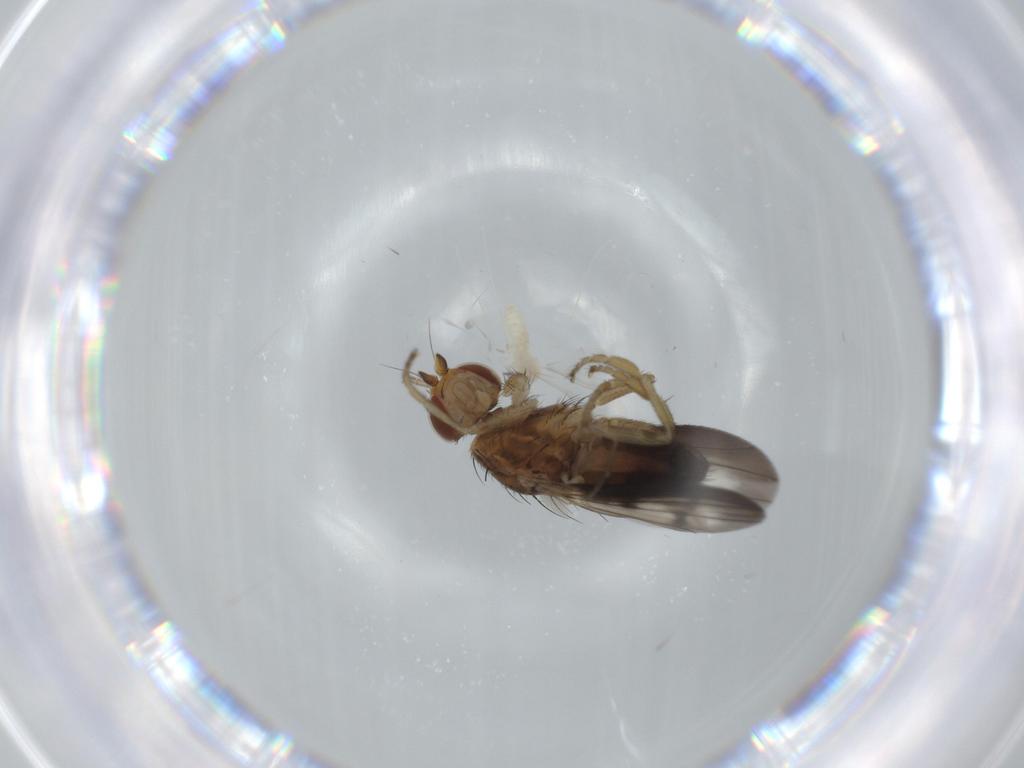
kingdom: Animalia
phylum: Arthropoda
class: Insecta
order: Diptera
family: Heleomyzidae
